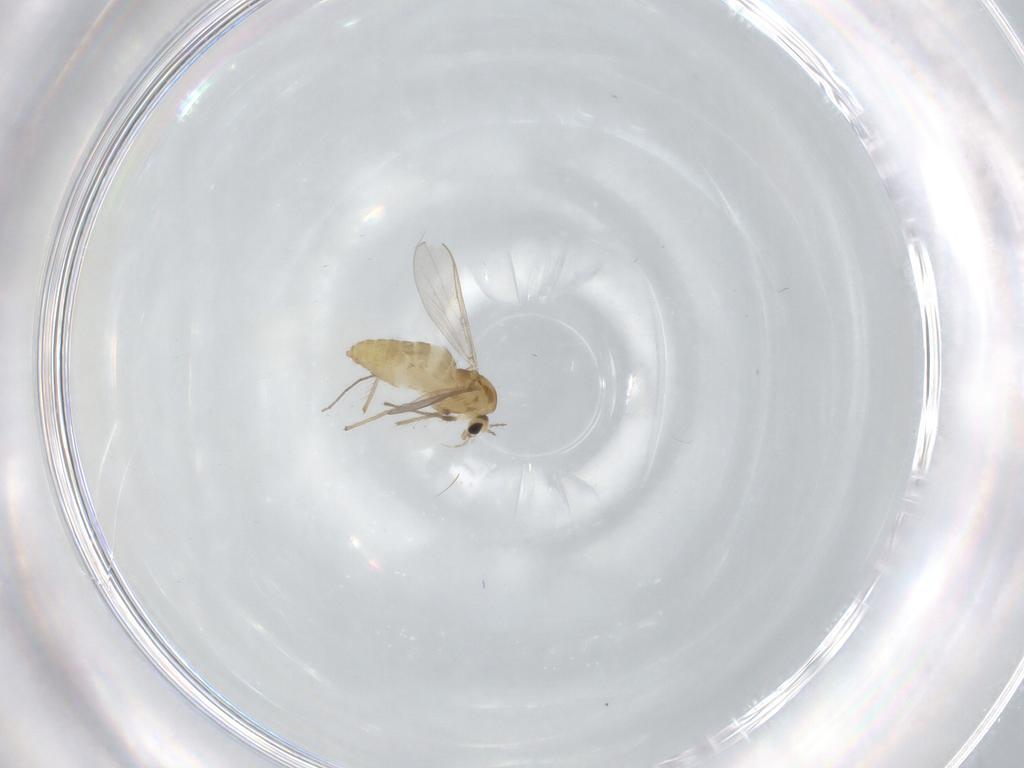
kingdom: Animalia
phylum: Arthropoda
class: Insecta
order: Diptera
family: Chironomidae
